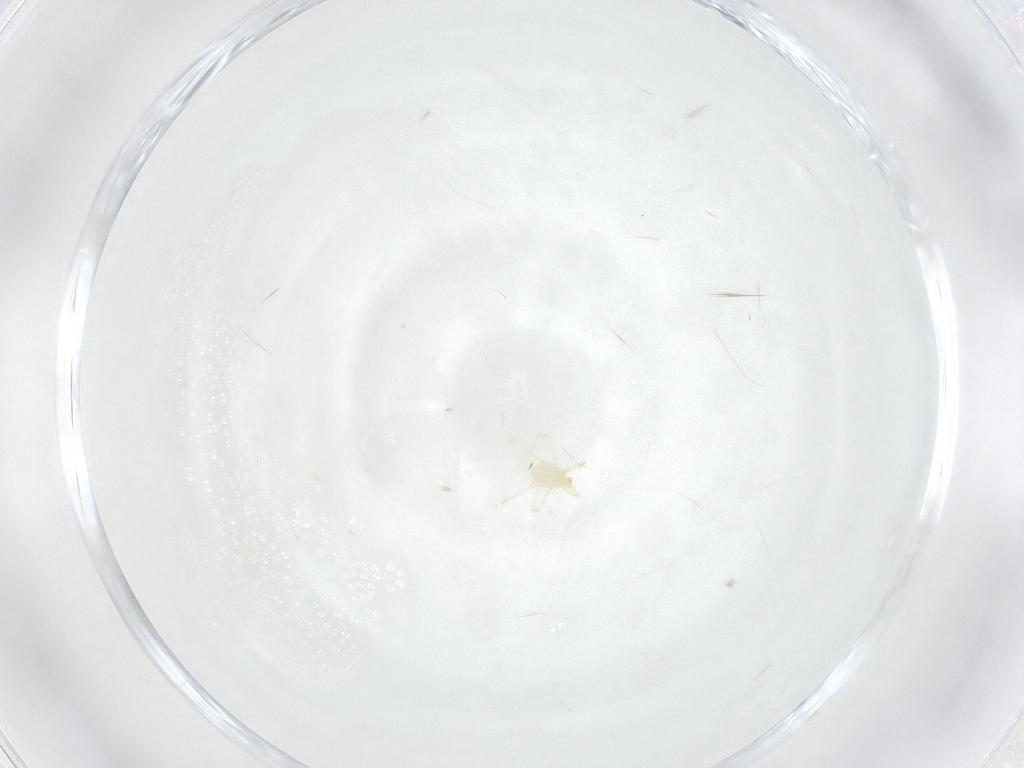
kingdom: Animalia
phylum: Arthropoda
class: Arachnida
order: Trombidiformes
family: Erythraeidae
